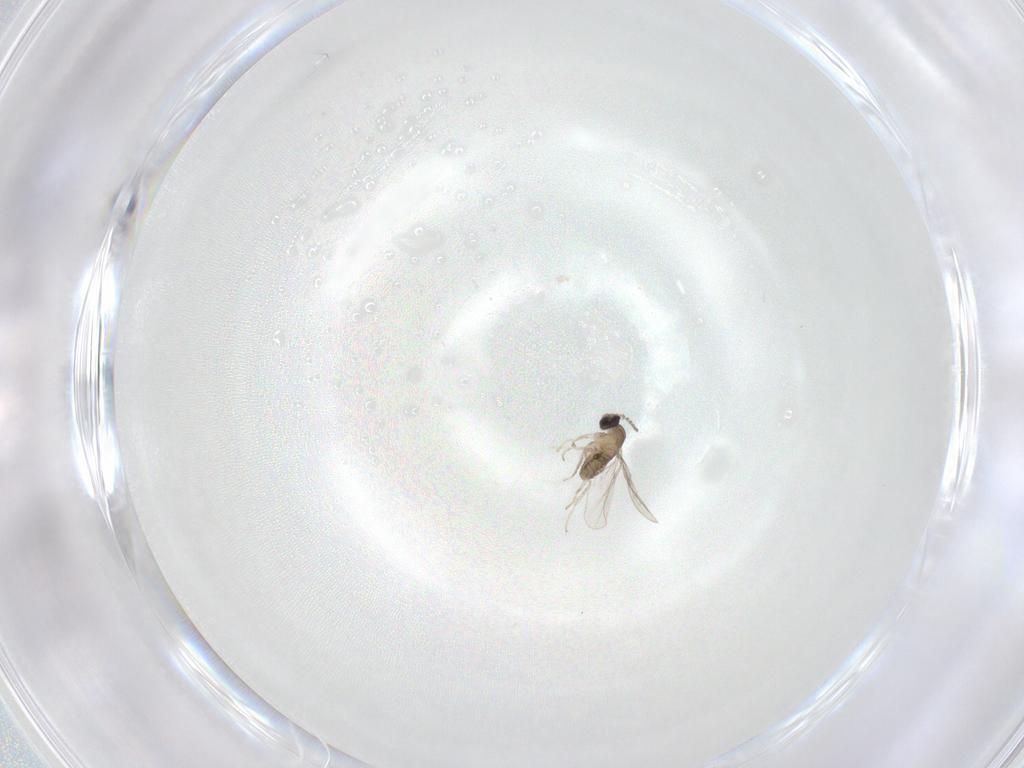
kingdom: Animalia
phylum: Arthropoda
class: Insecta
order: Diptera
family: Cecidomyiidae
